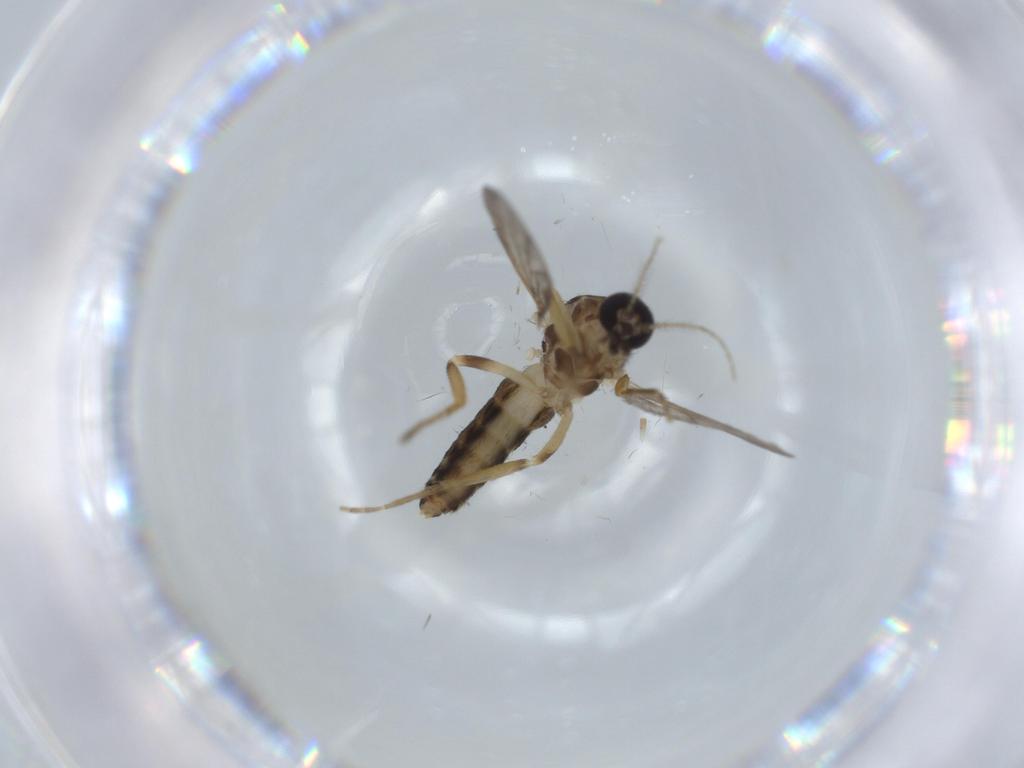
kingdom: Animalia
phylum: Arthropoda
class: Insecta
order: Diptera
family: Ceratopogonidae
